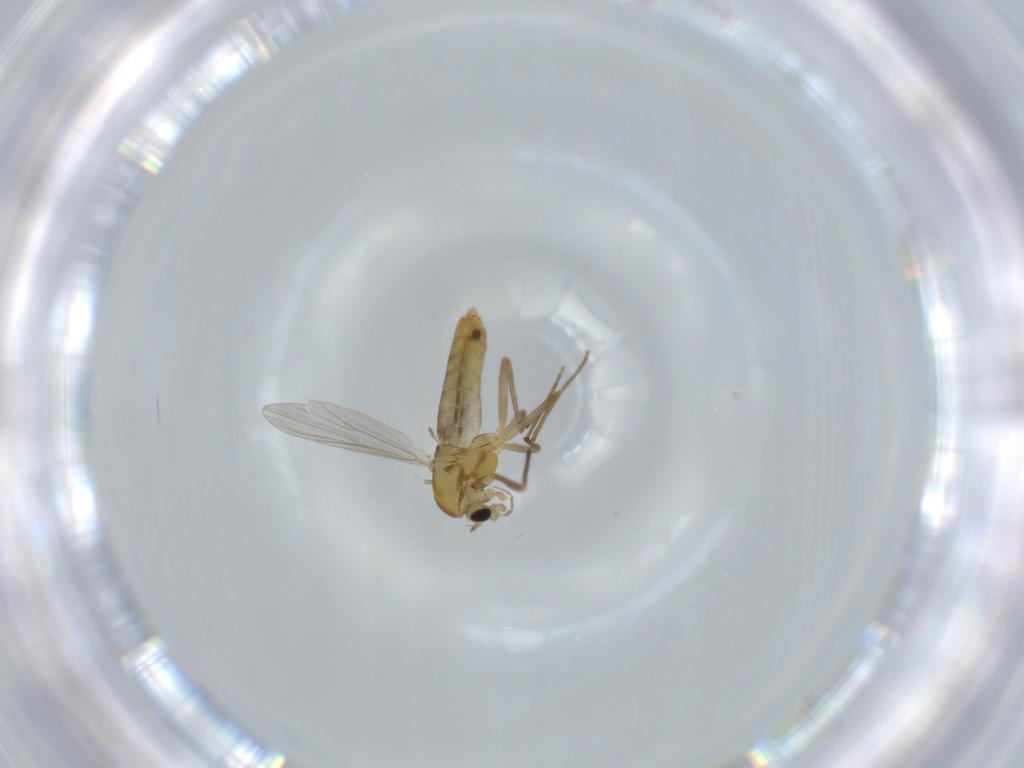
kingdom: Animalia
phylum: Arthropoda
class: Insecta
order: Diptera
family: Chironomidae
